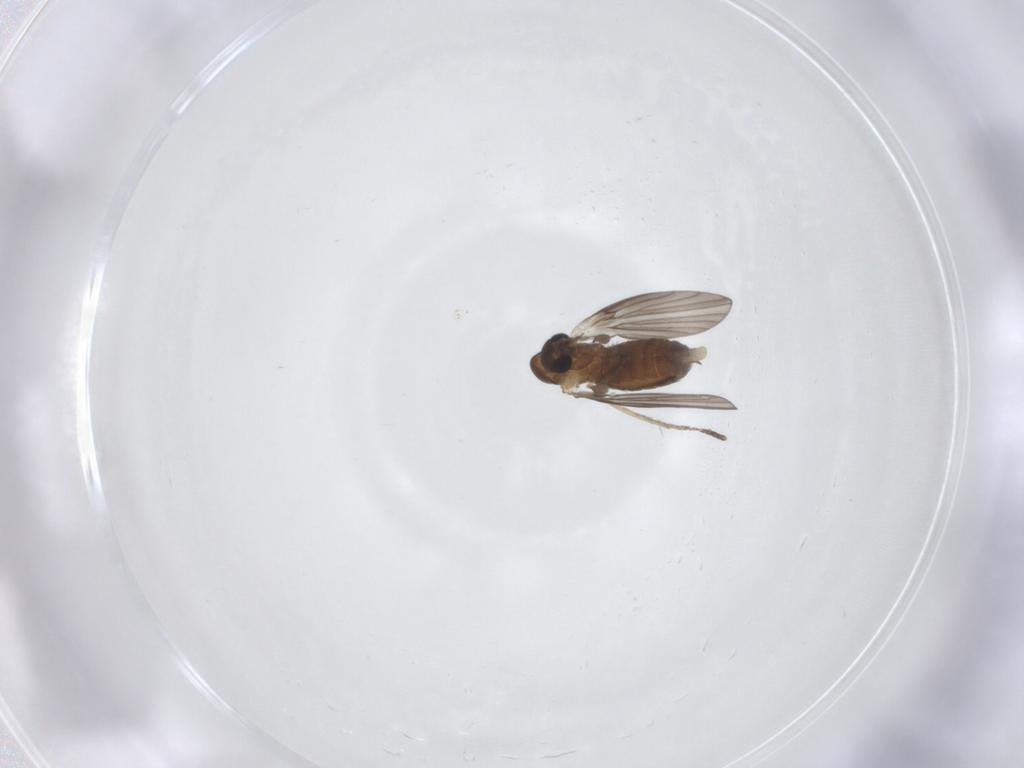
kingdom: Animalia
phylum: Arthropoda
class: Insecta
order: Diptera
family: Psychodidae
